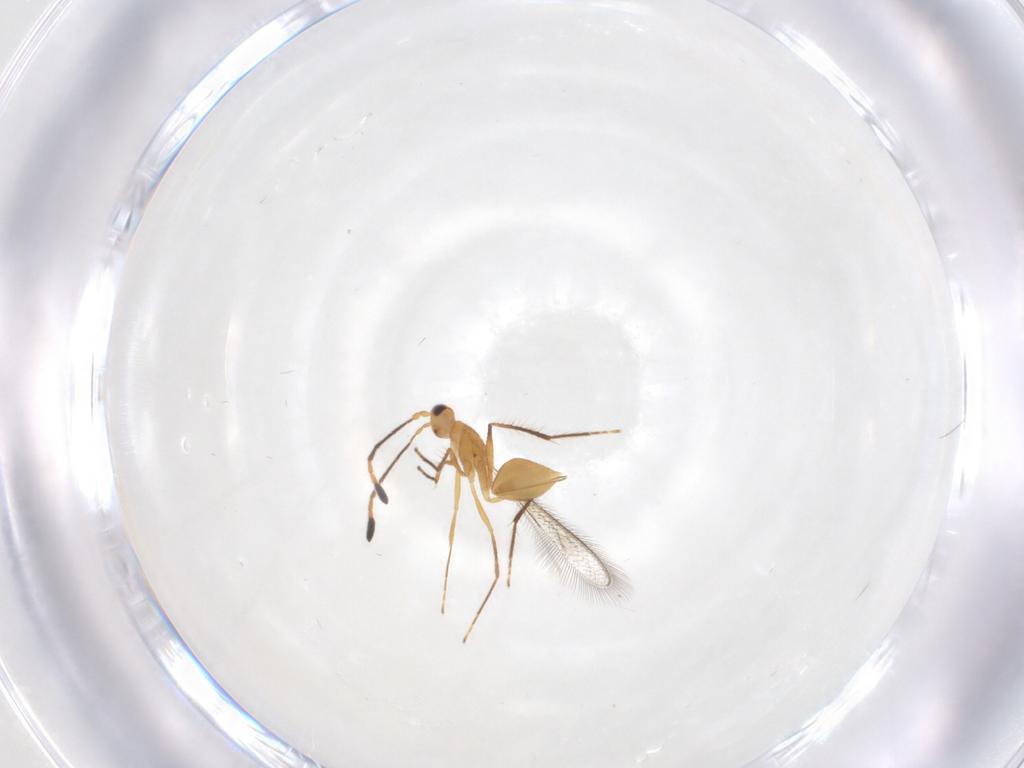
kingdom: Animalia
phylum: Arthropoda
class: Insecta
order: Hymenoptera
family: Mymaridae
